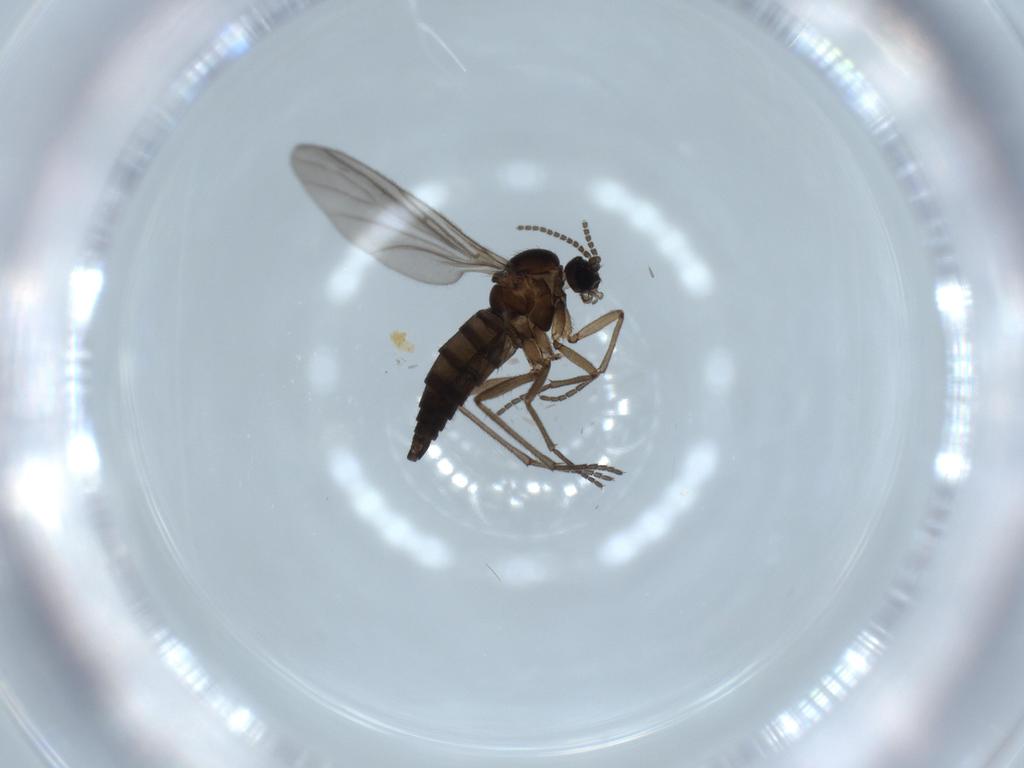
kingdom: Animalia
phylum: Arthropoda
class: Insecta
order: Diptera
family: Sciaridae
